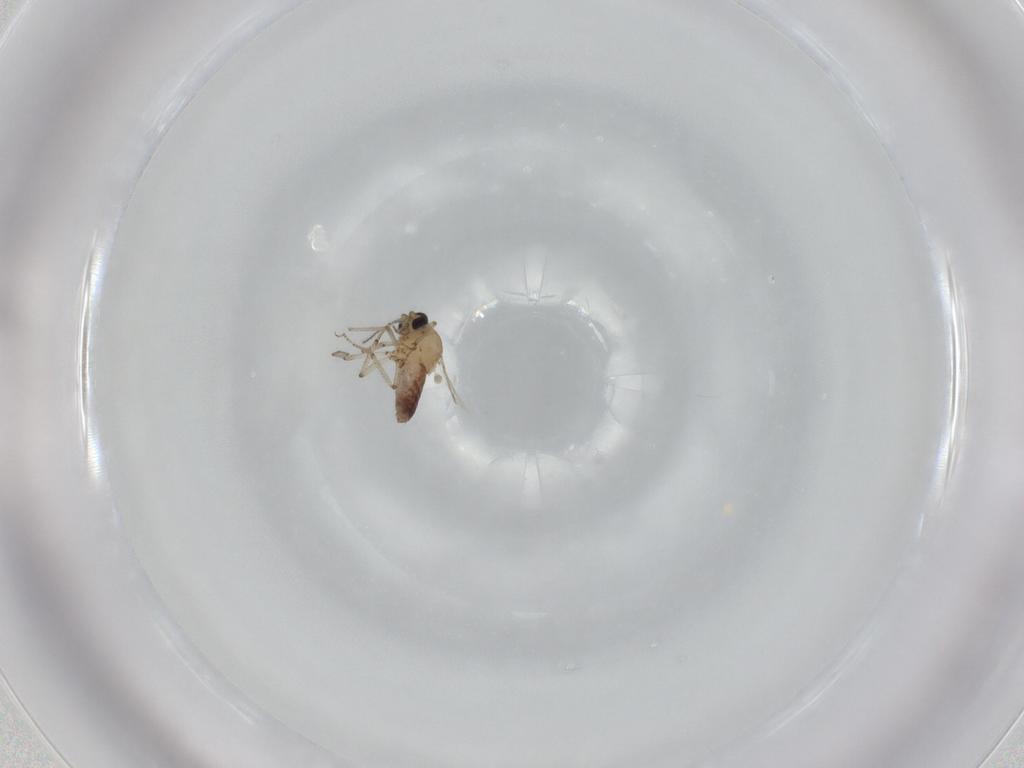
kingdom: Animalia
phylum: Arthropoda
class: Insecta
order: Diptera
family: Ceratopogonidae
